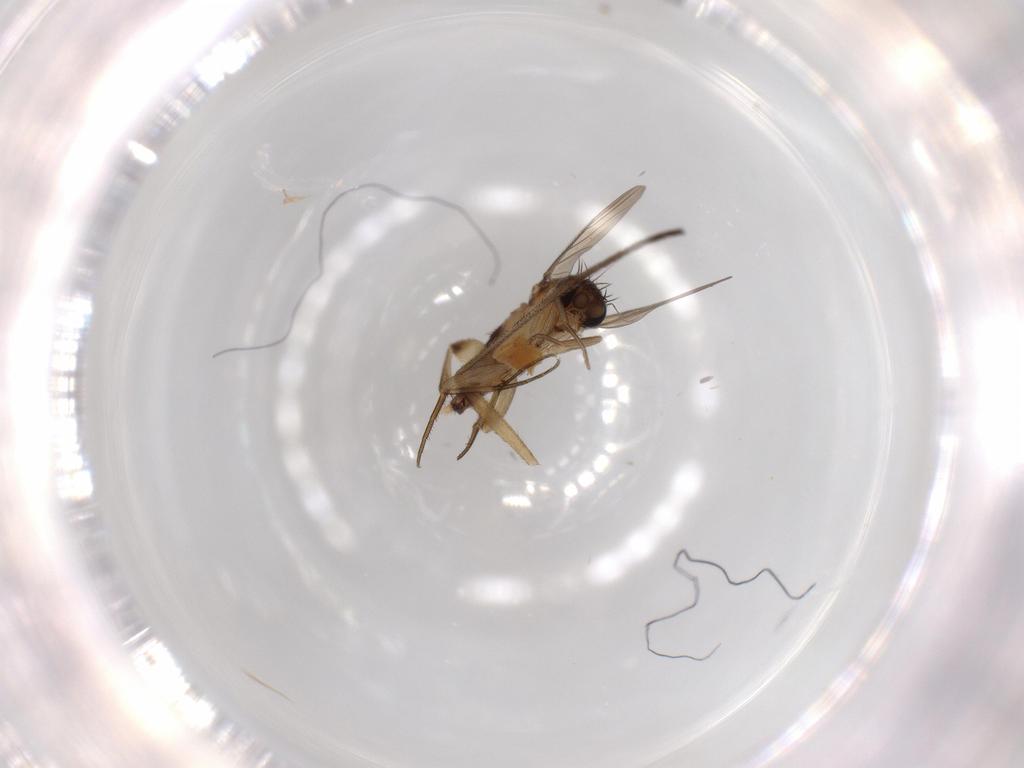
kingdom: Animalia
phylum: Arthropoda
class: Insecta
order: Diptera
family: Phoridae
